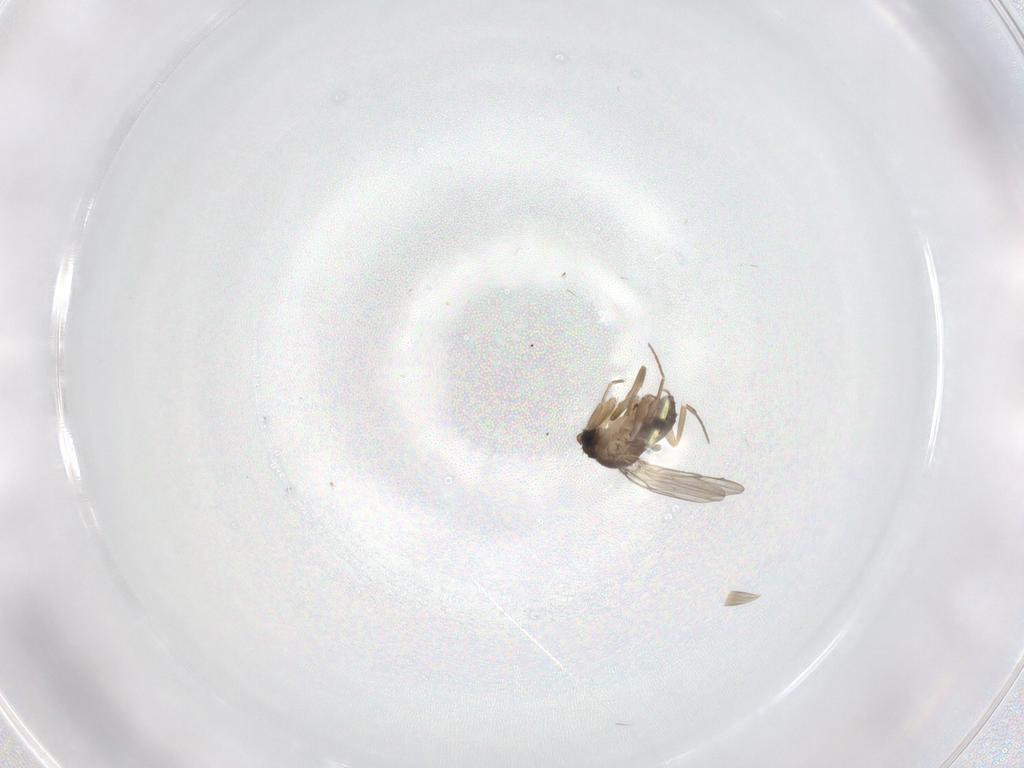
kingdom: Animalia
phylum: Arthropoda
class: Insecta
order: Diptera
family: Phoridae
